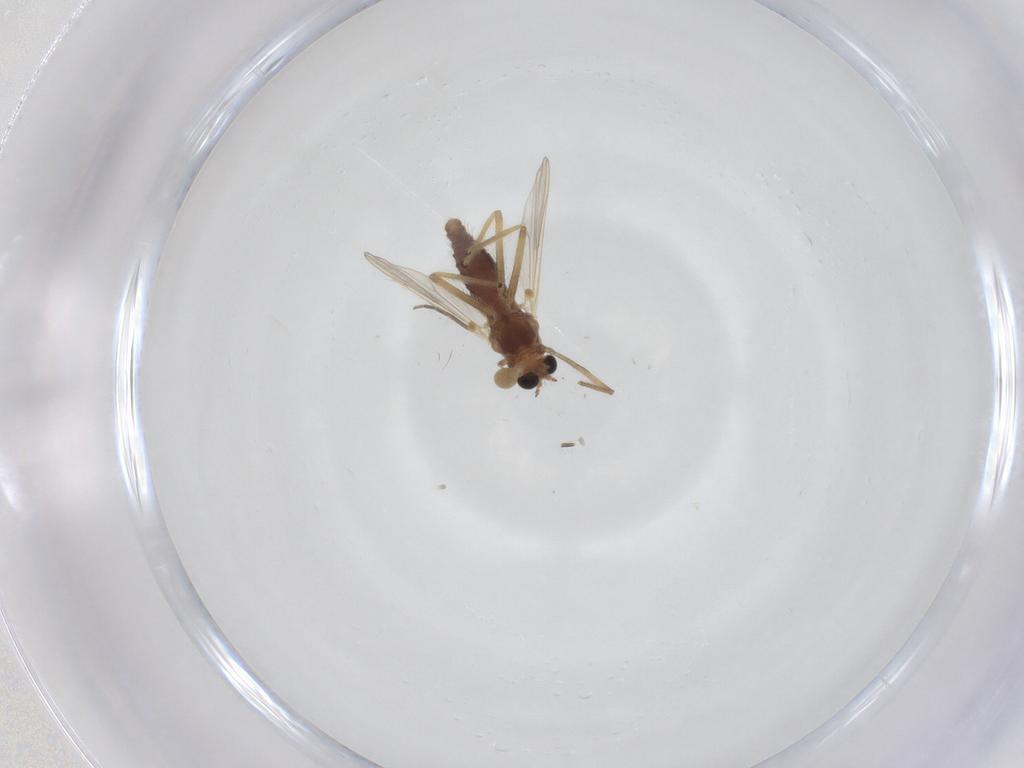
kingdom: Animalia
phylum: Arthropoda
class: Insecta
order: Diptera
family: Chironomidae
